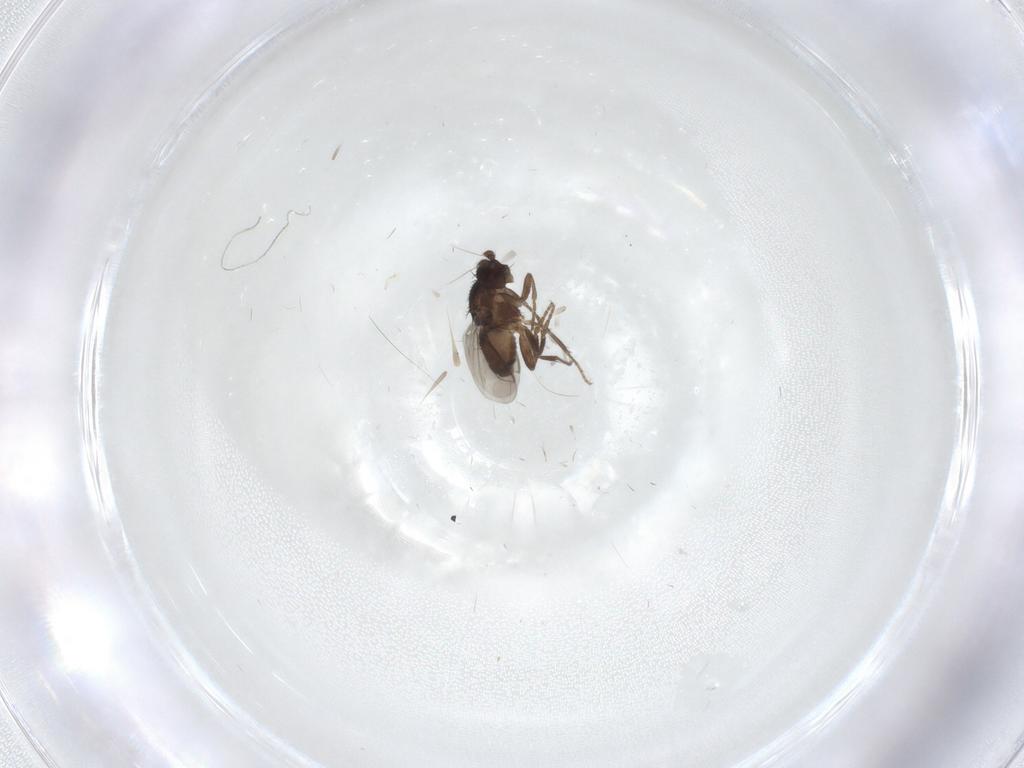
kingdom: Animalia
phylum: Arthropoda
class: Insecta
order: Diptera
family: Sphaeroceridae
